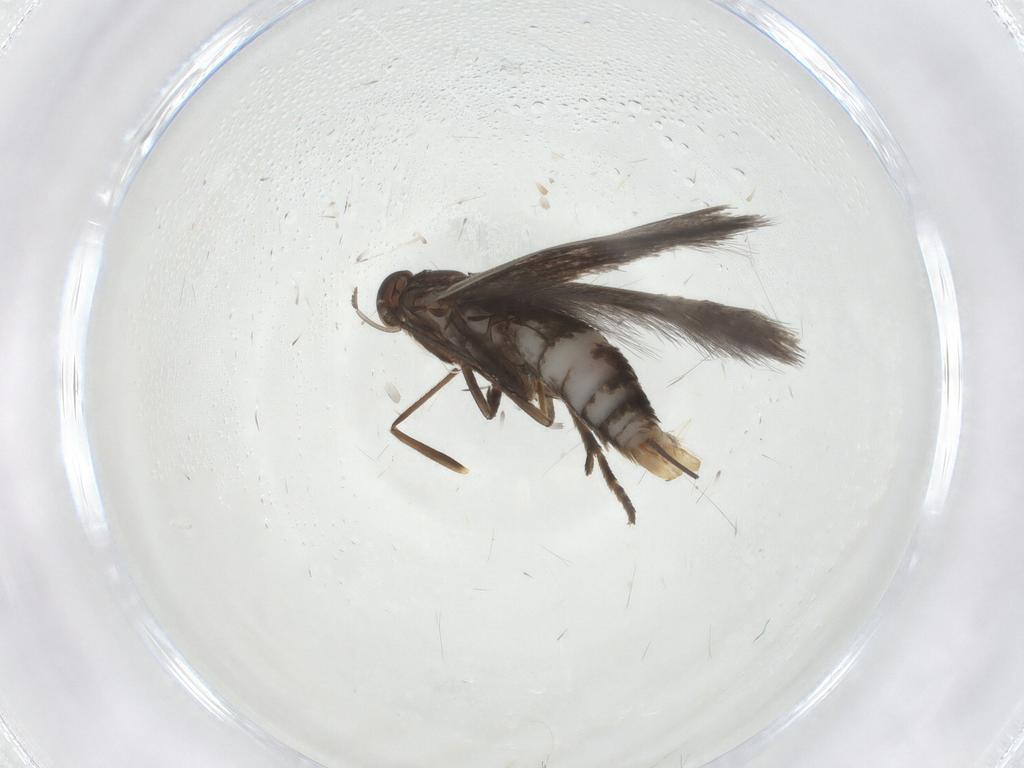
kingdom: Animalia
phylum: Arthropoda
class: Insecta
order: Lepidoptera
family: Elachistidae
